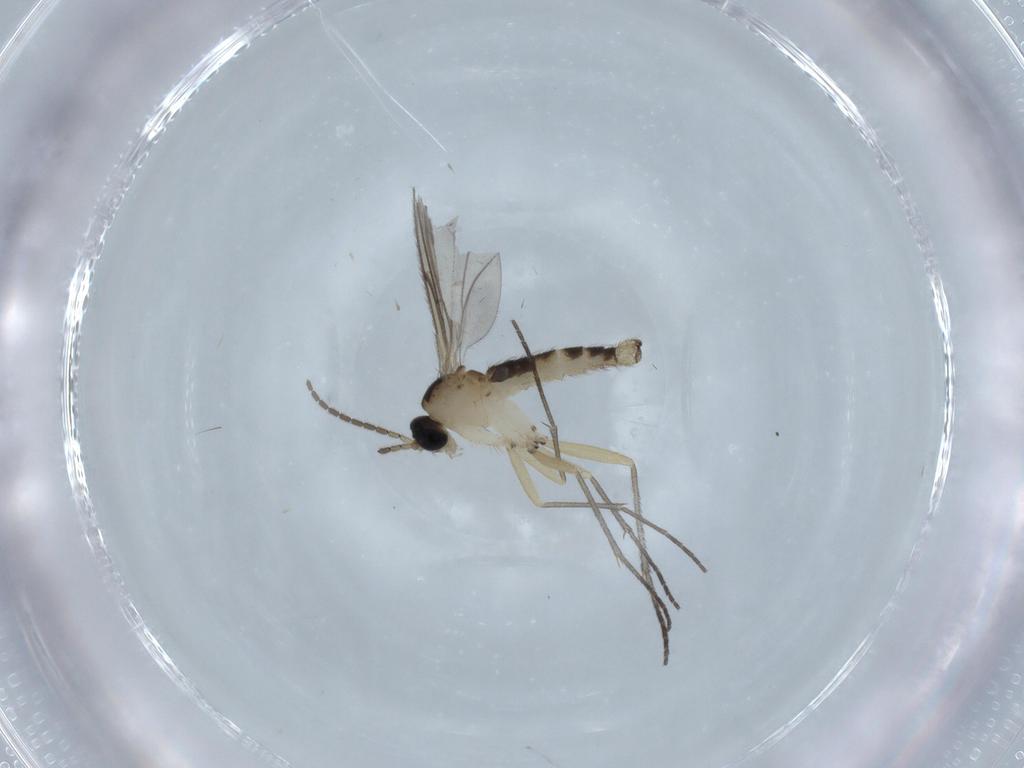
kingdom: Animalia
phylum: Arthropoda
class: Insecta
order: Diptera
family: Sciaridae
